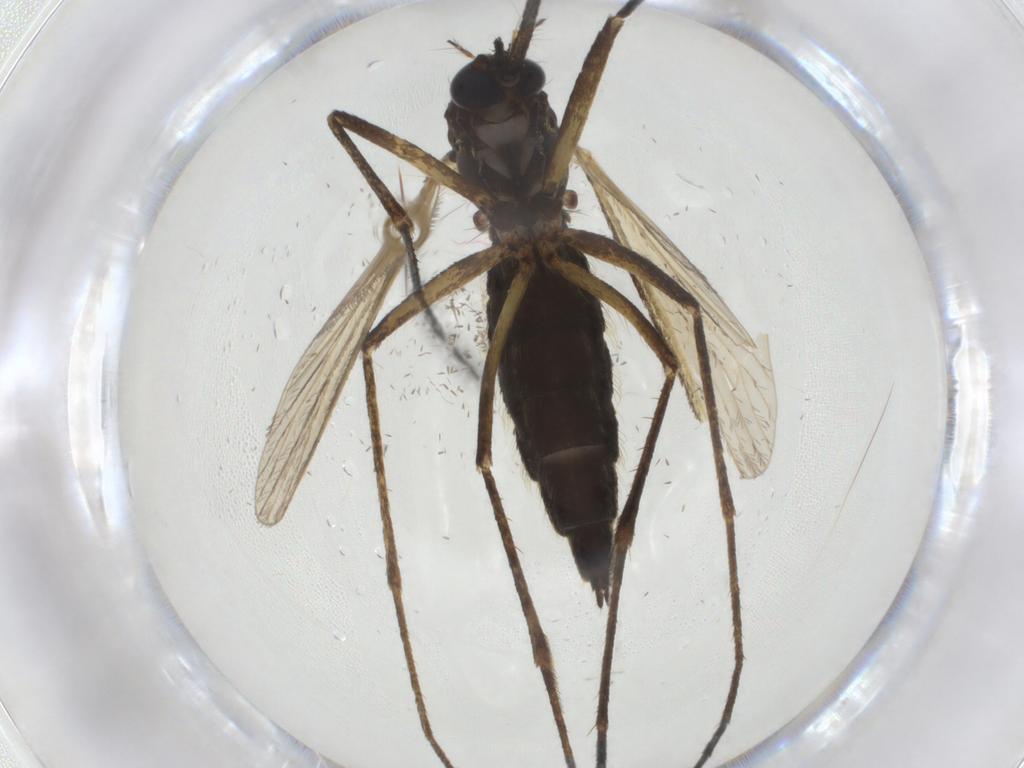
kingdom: Animalia
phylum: Arthropoda
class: Insecta
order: Diptera
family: Culicidae
